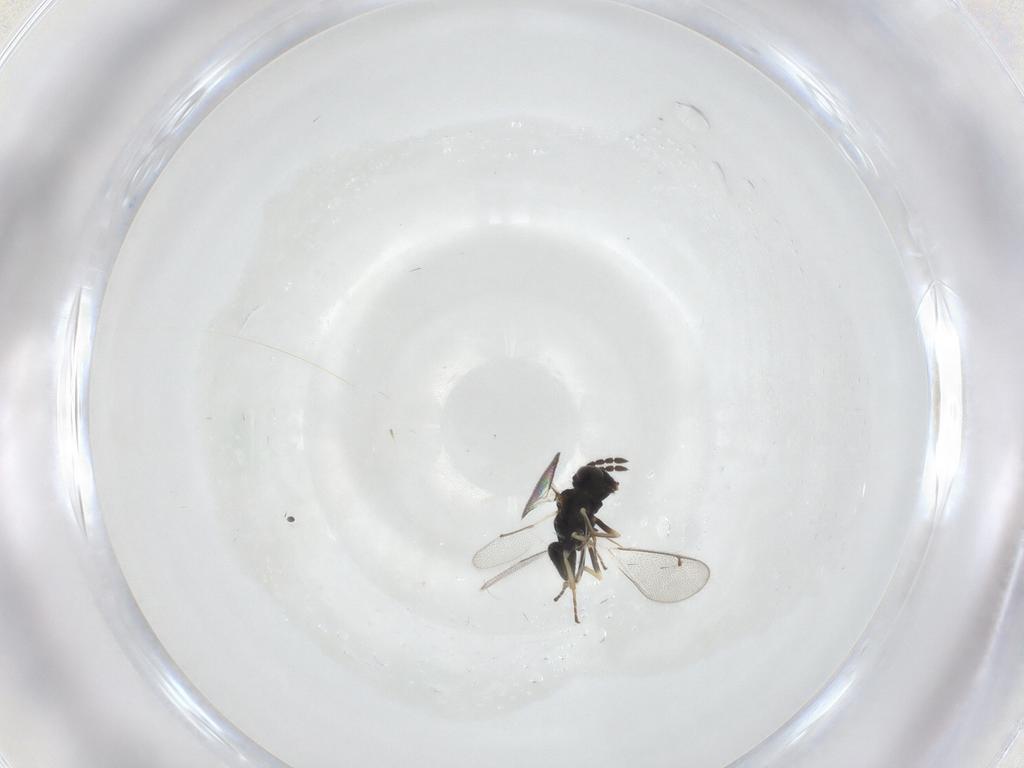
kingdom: Animalia
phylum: Arthropoda
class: Insecta
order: Hymenoptera
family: Eulophidae
